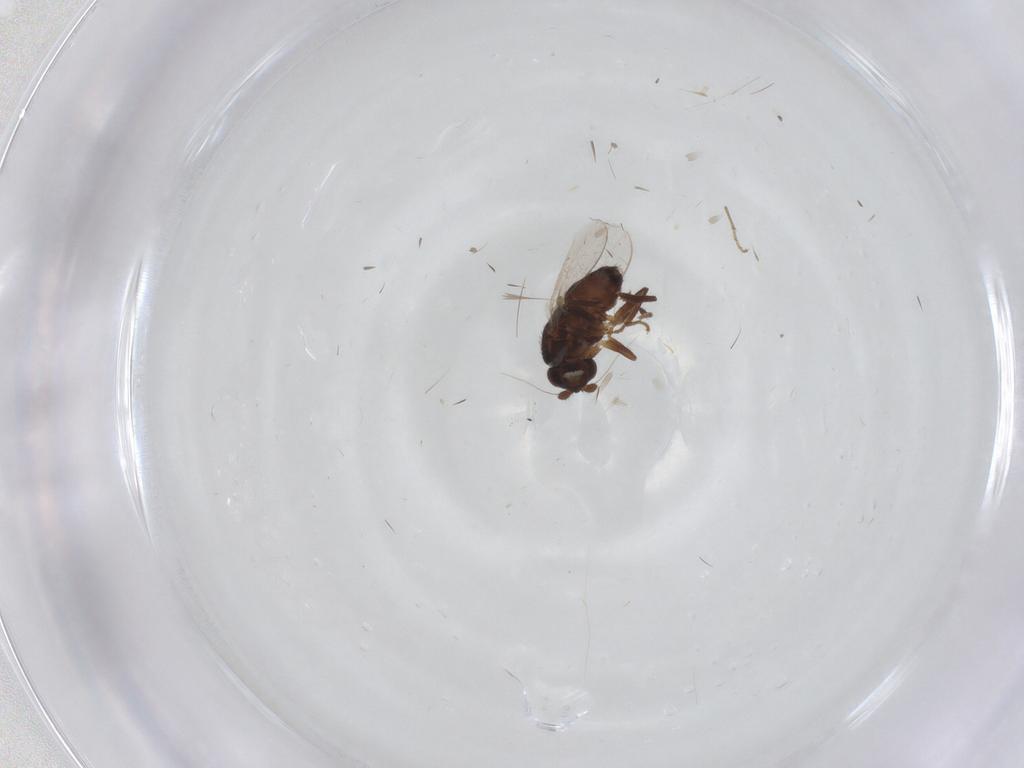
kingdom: Animalia
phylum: Arthropoda
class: Insecta
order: Diptera
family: Sphaeroceridae
